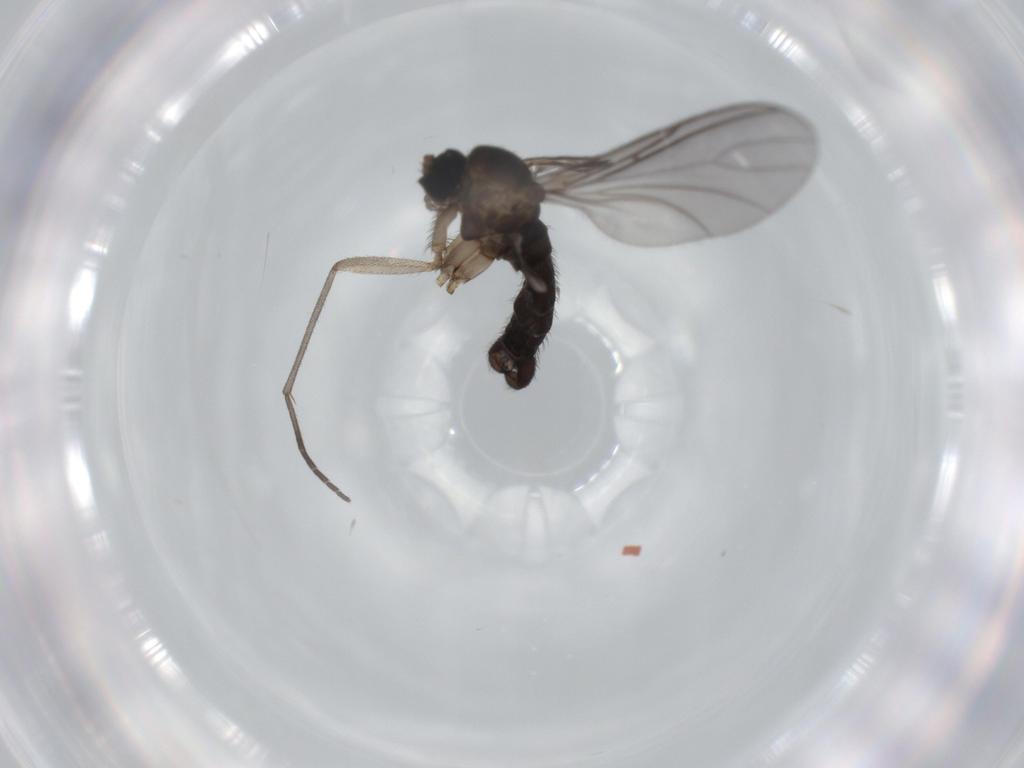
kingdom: Animalia
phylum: Arthropoda
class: Insecta
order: Diptera
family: Sciaridae
